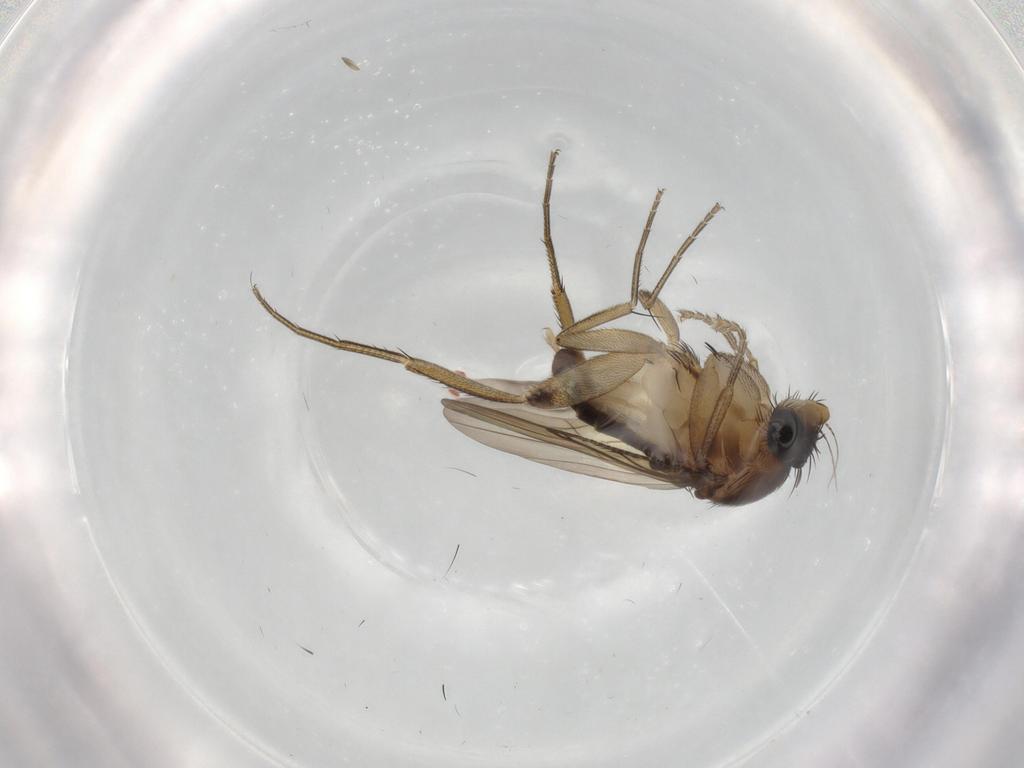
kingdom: Animalia
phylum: Arthropoda
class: Insecta
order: Diptera
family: Phoridae
